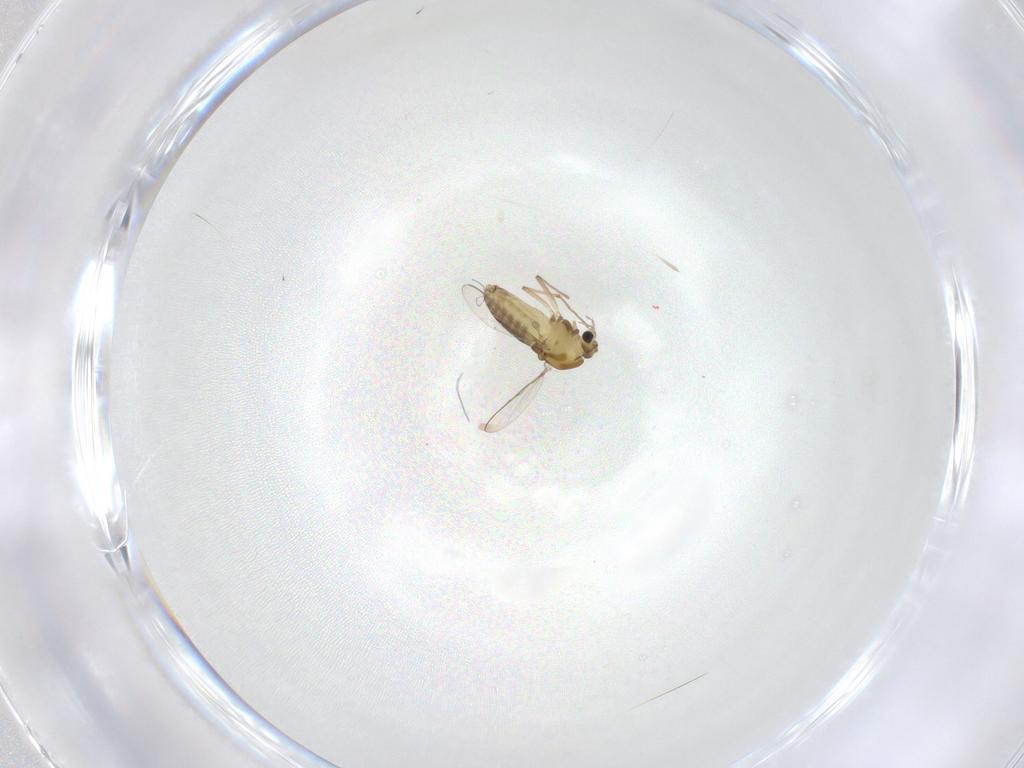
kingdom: Animalia
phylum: Arthropoda
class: Insecta
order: Diptera
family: Chironomidae
